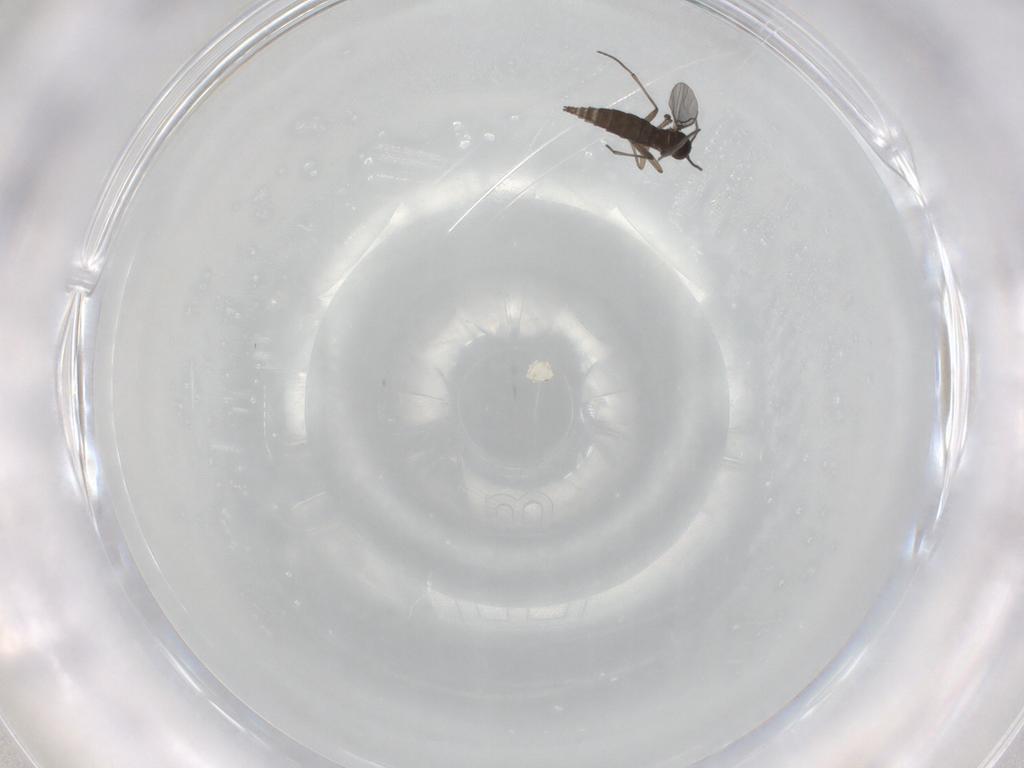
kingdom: Animalia
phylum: Arthropoda
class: Insecta
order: Diptera
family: Sciaridae
